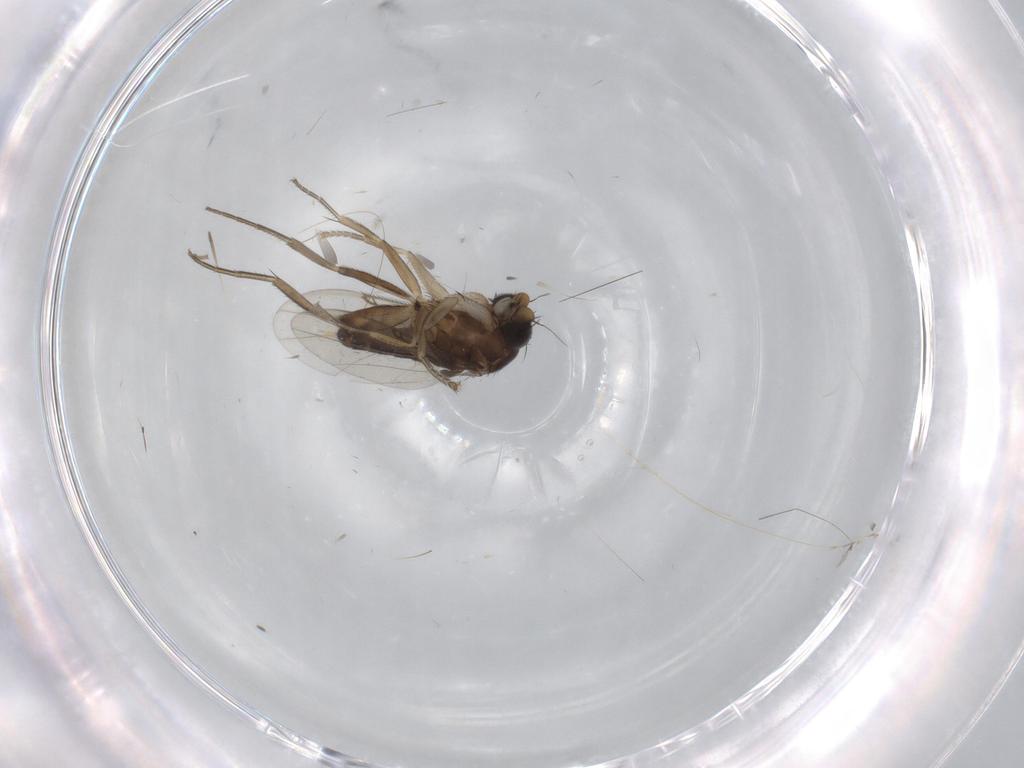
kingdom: Animalia
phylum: Arthropoda
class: Insecta
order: Diptera
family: Phoridae
